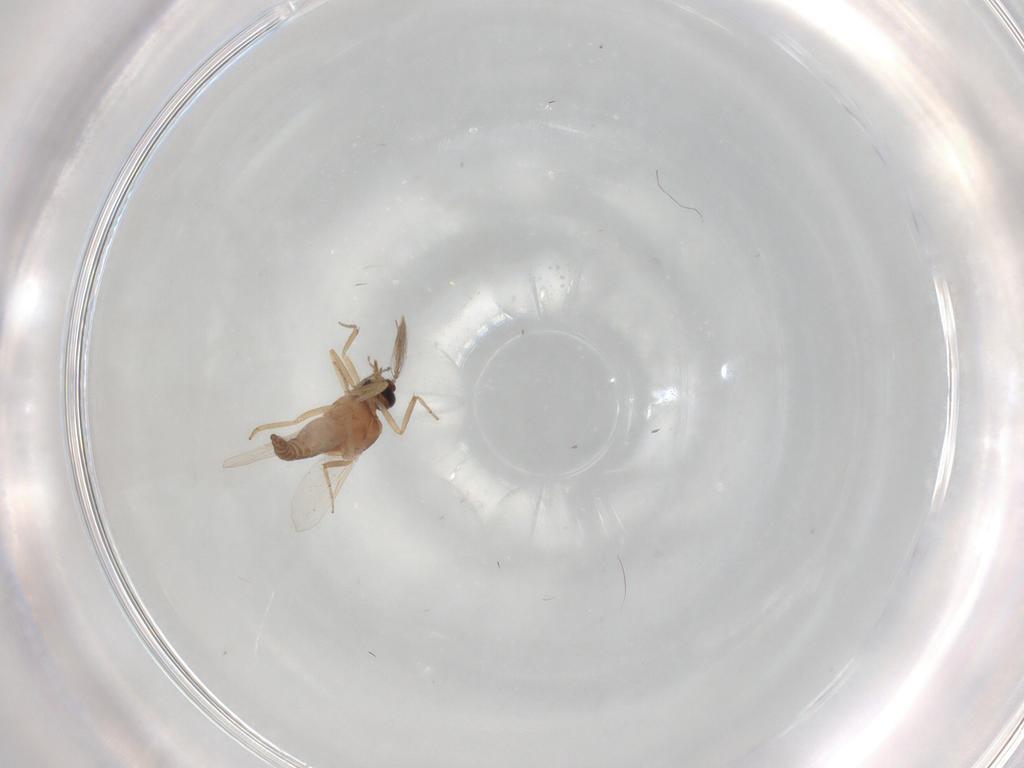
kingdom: Animalia
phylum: Arthropoda
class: Insecta
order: Diptera
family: Ceratopogonidae
